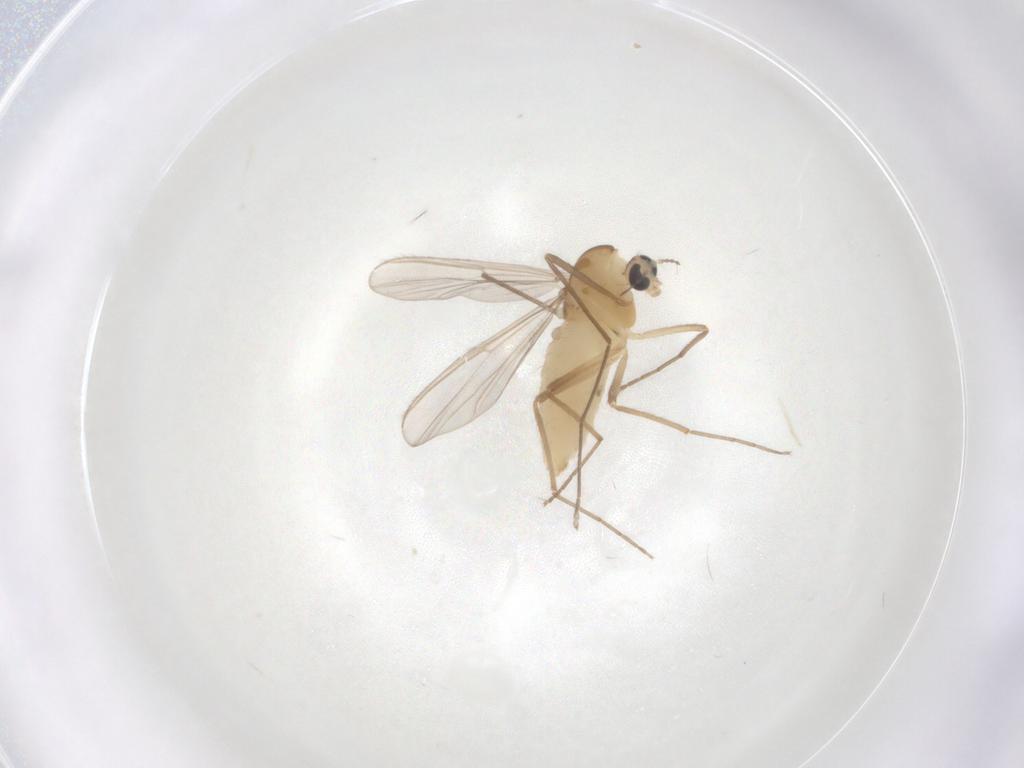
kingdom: Animalia
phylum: Arthropoda
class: Insecta
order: Diptera
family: Chironomidae
